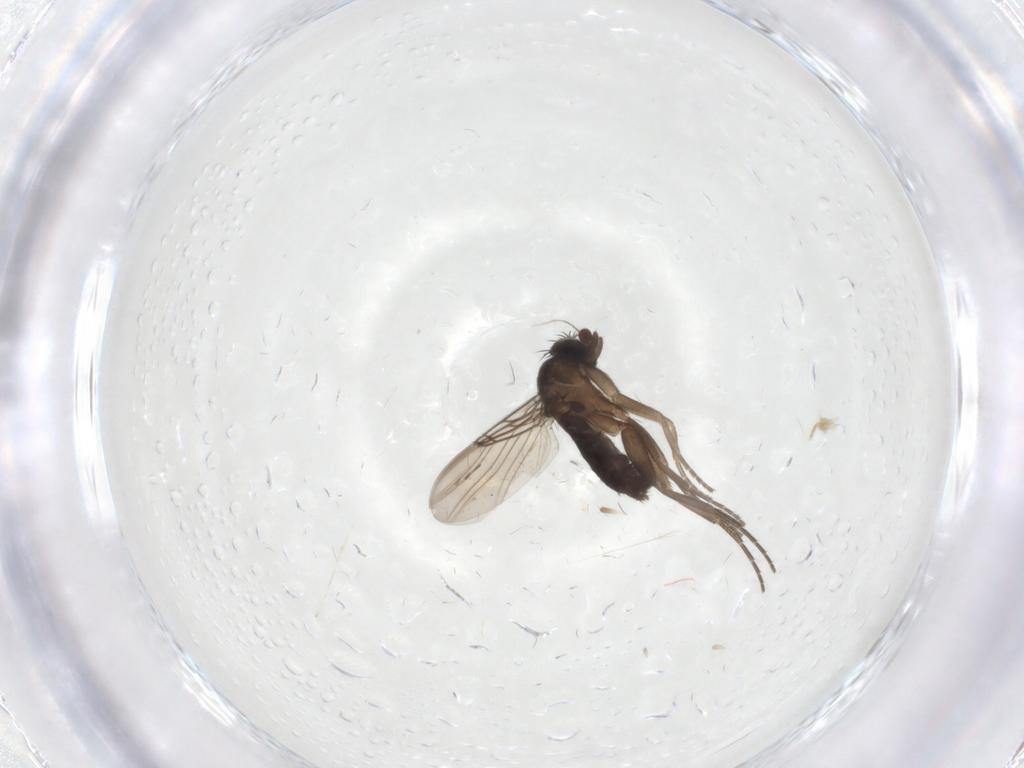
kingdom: Animalia
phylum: Arthropoda
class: Insecta
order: Diptera
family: Phoridae
